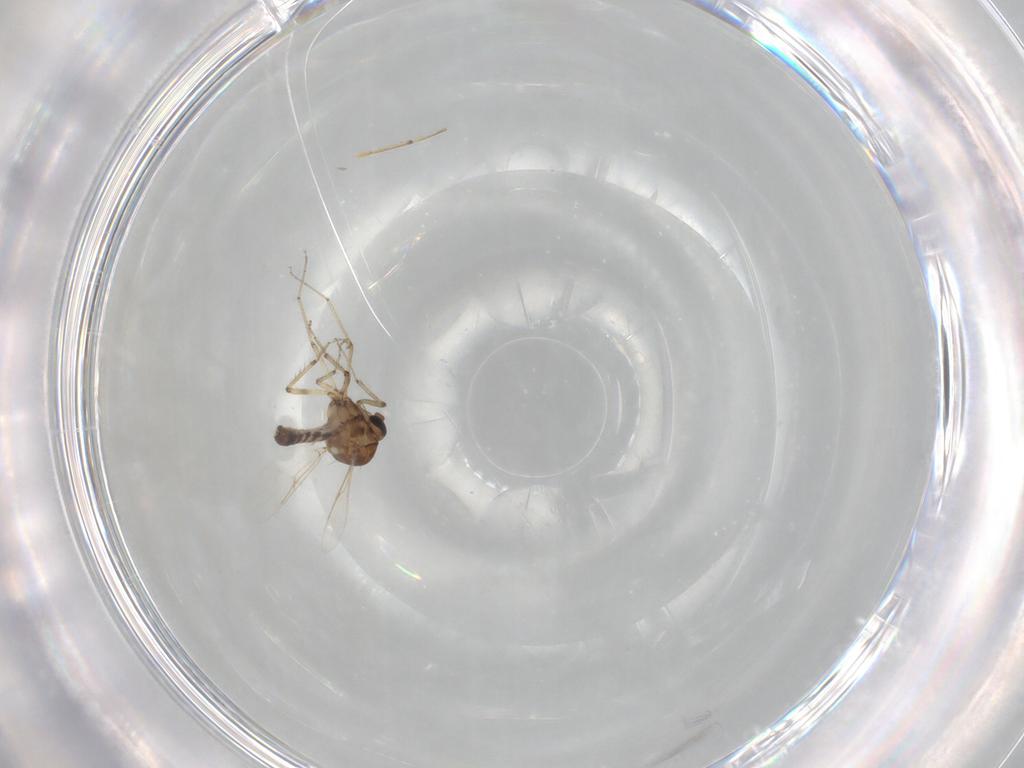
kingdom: Animalia
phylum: Arthropoda
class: Insecta
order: Diptera
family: Ceratopogonidae
